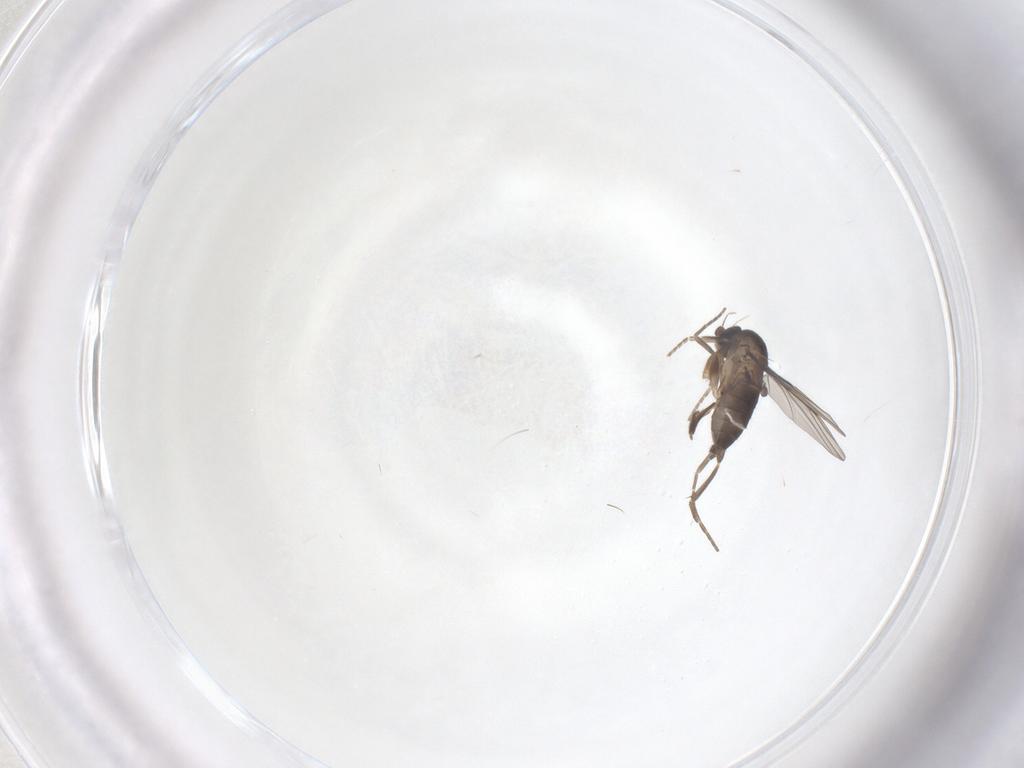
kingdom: Animalia
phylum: Arthropoda
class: Insecta
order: Diptera
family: Phoridae
